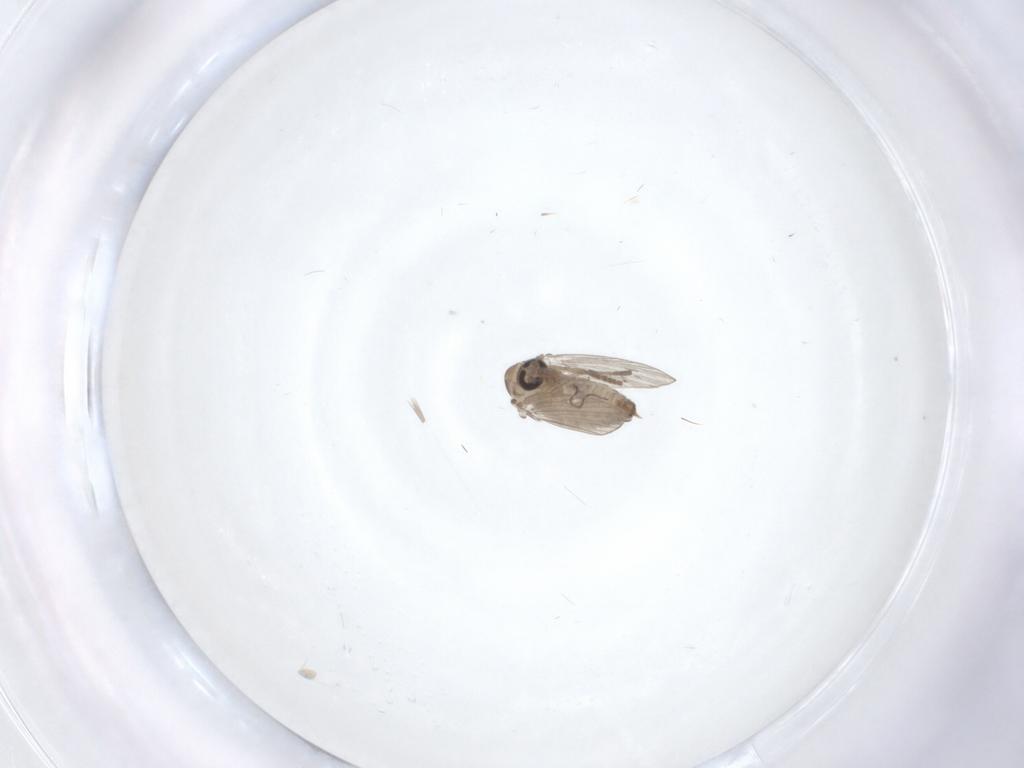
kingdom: Animalia
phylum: Arthropoda
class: Insecta
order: Diptera
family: Psychodidae
